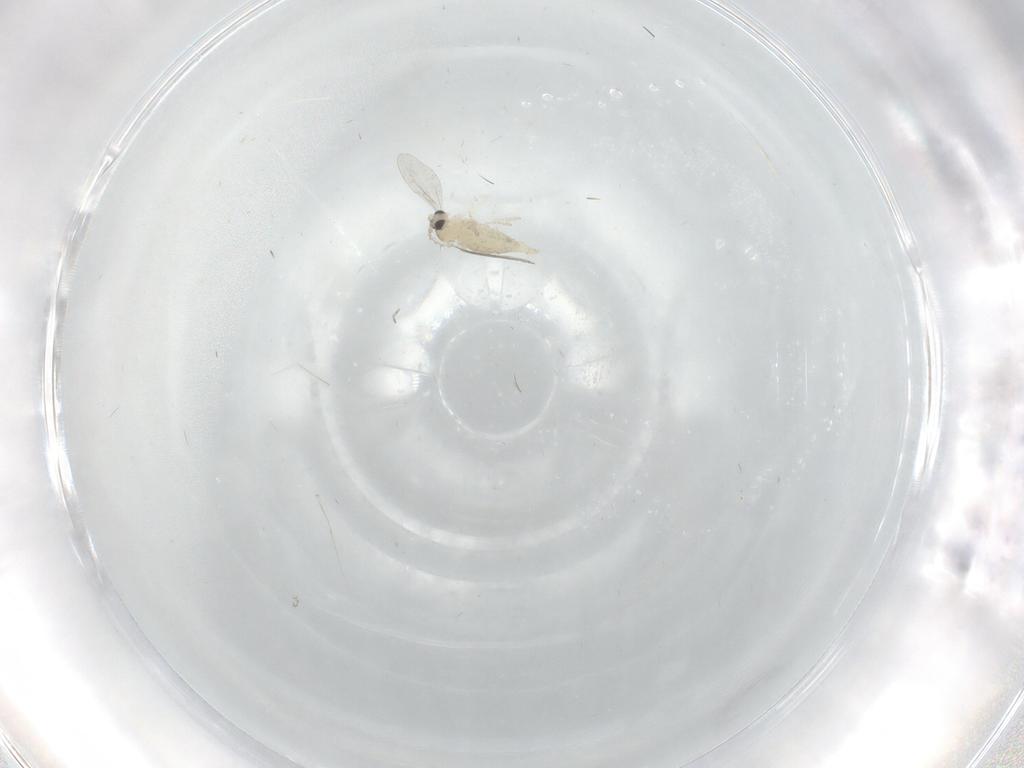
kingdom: Animalia
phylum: Arthropoda
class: Insecta
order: Diptera
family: Cecidomyiidae
